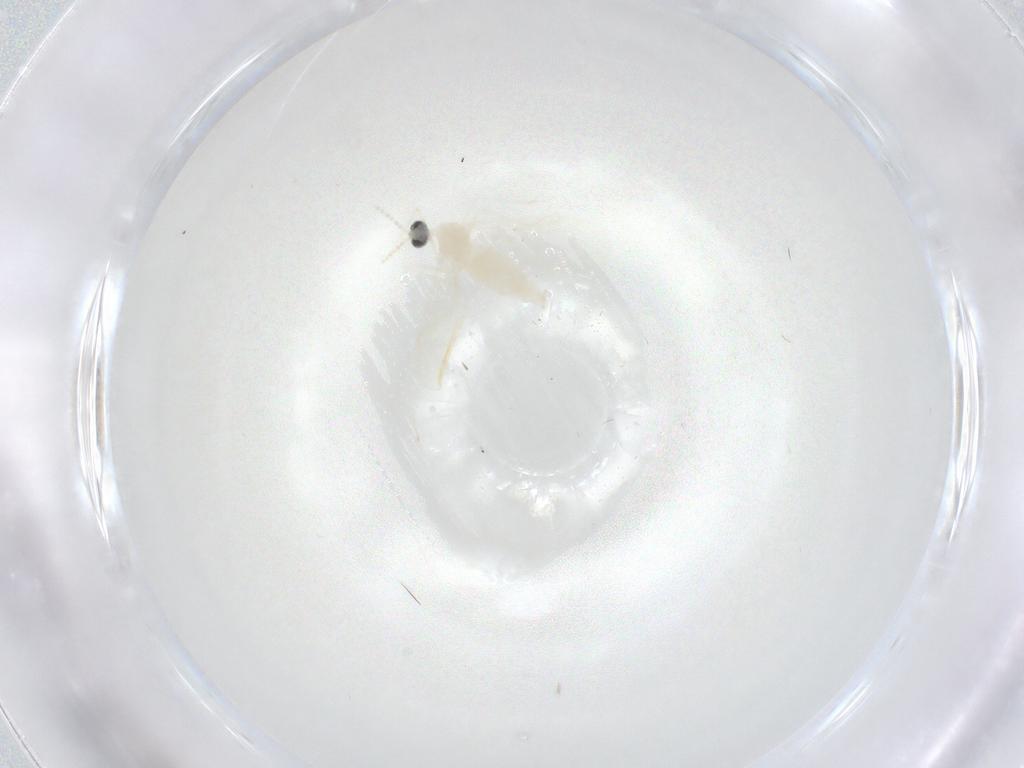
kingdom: Animalia
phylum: Arthropoda
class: Insecta
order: Diptera
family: Cecidomyiidae
